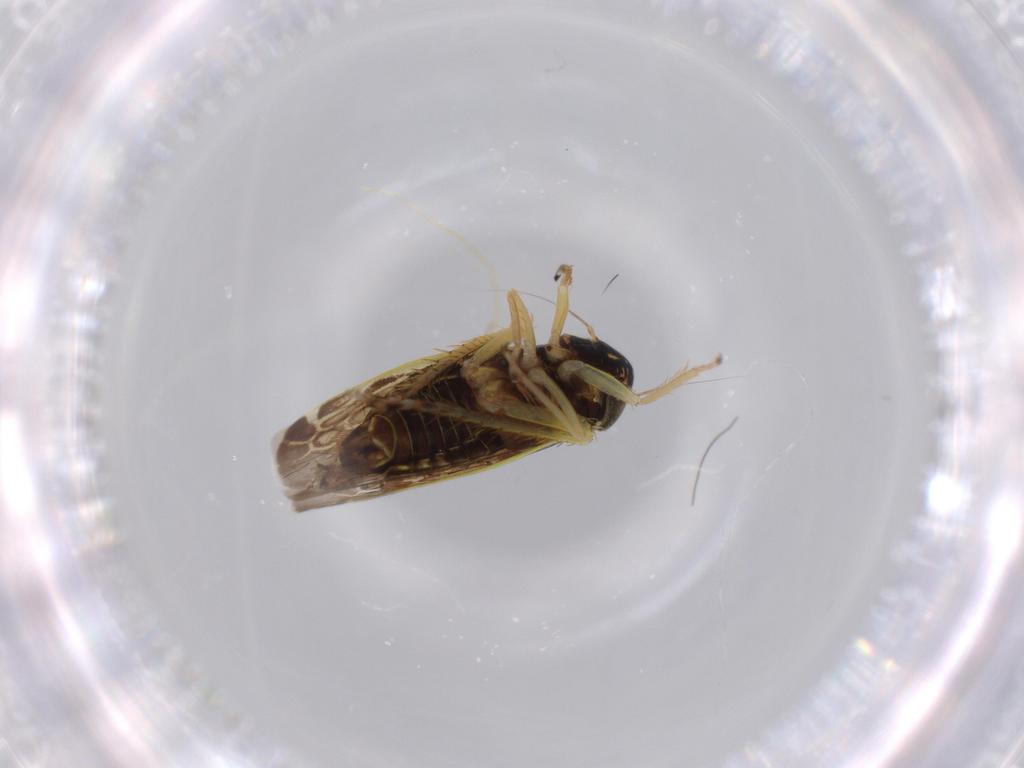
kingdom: Animalia
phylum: Arthropoda
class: Insecta
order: Hemiptera
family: Cicadellidae
